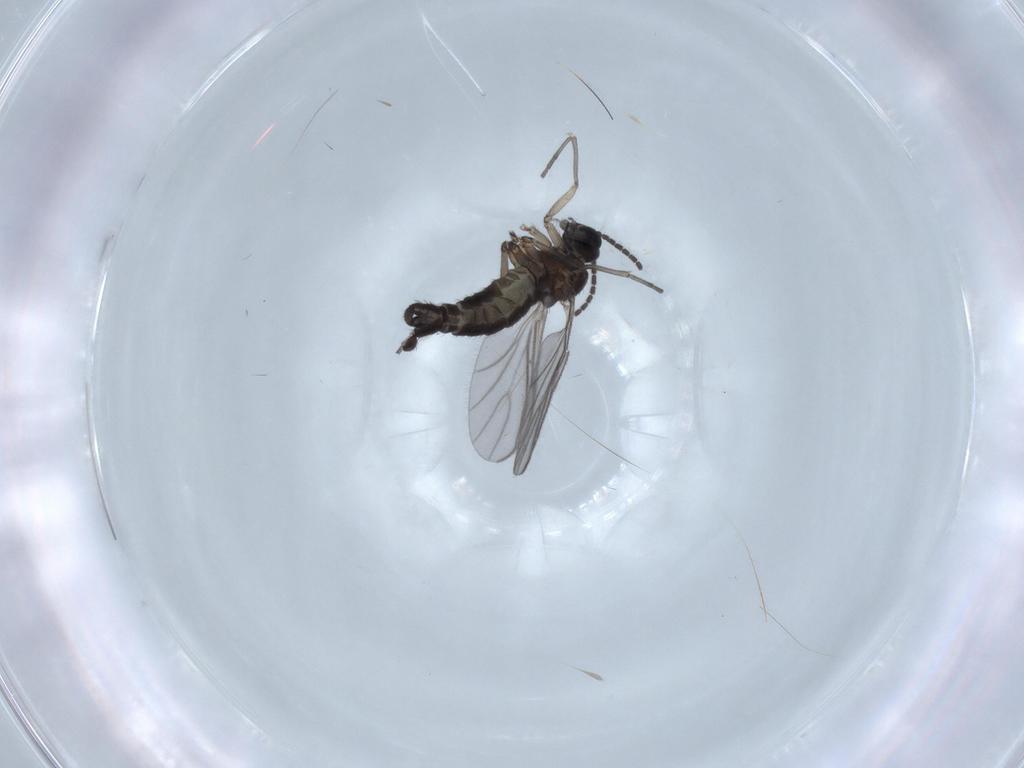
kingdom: Animalia
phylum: Arthropoda
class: Insecta
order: Diptera
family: Sciaridae
